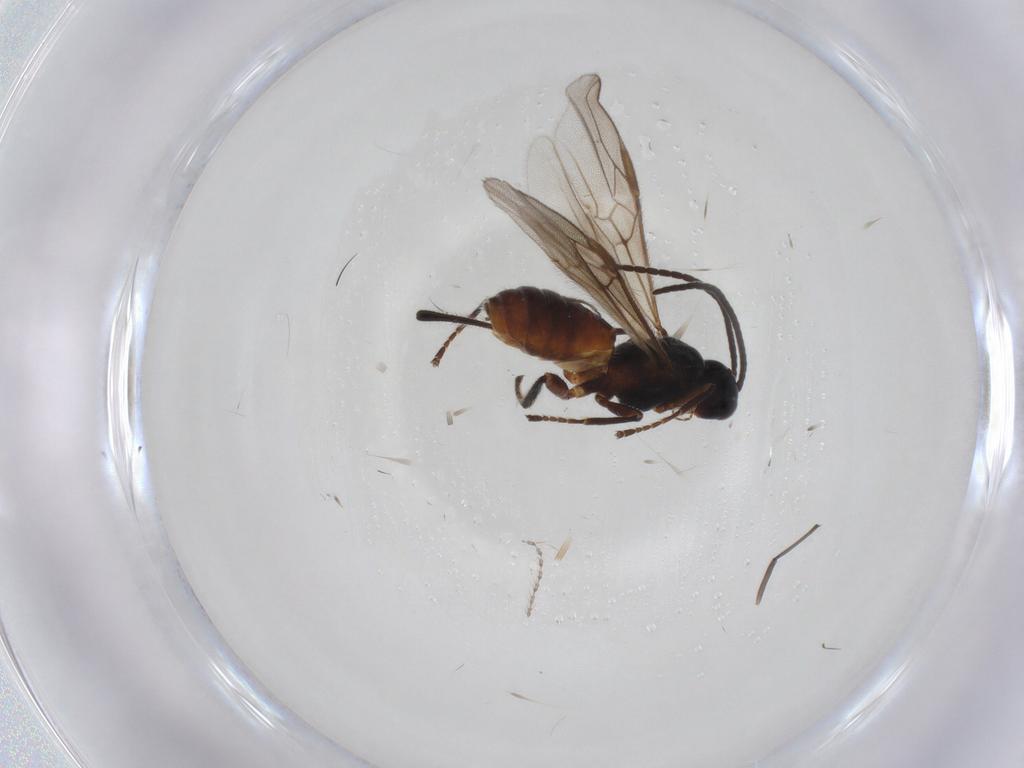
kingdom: Animalia
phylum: Arthropoda
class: Insecta
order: Hymenoptera
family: Braconidae
